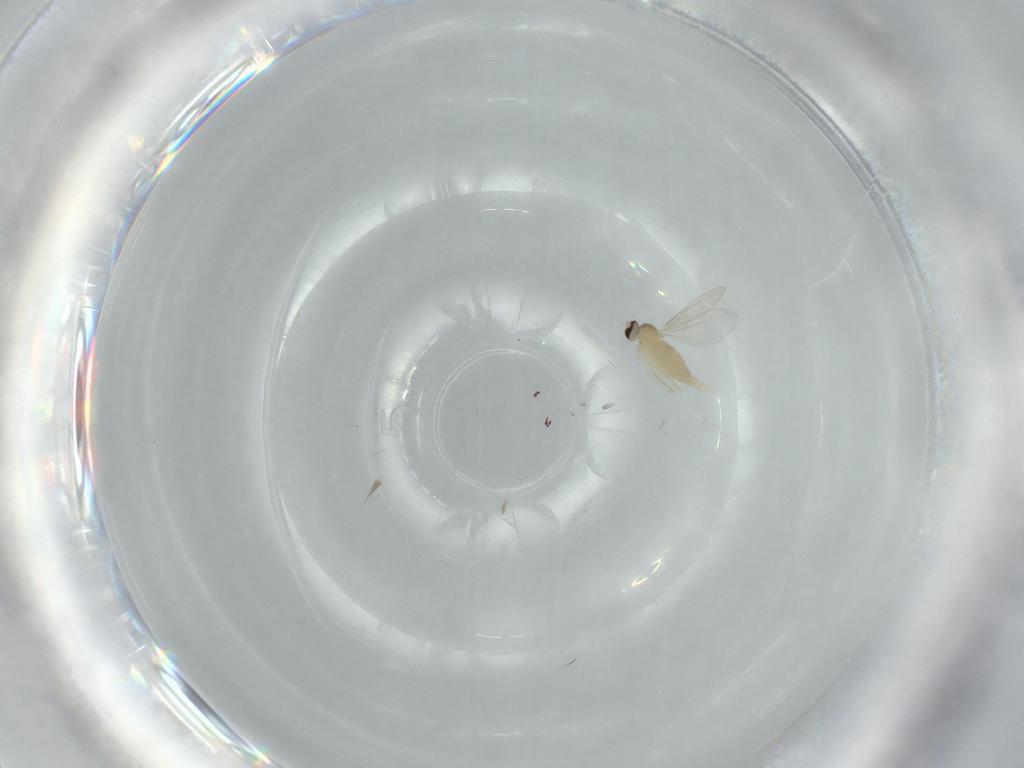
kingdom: Animalia
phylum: Arthropoda
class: Insecta
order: Diptera
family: Cecidomyiidae
